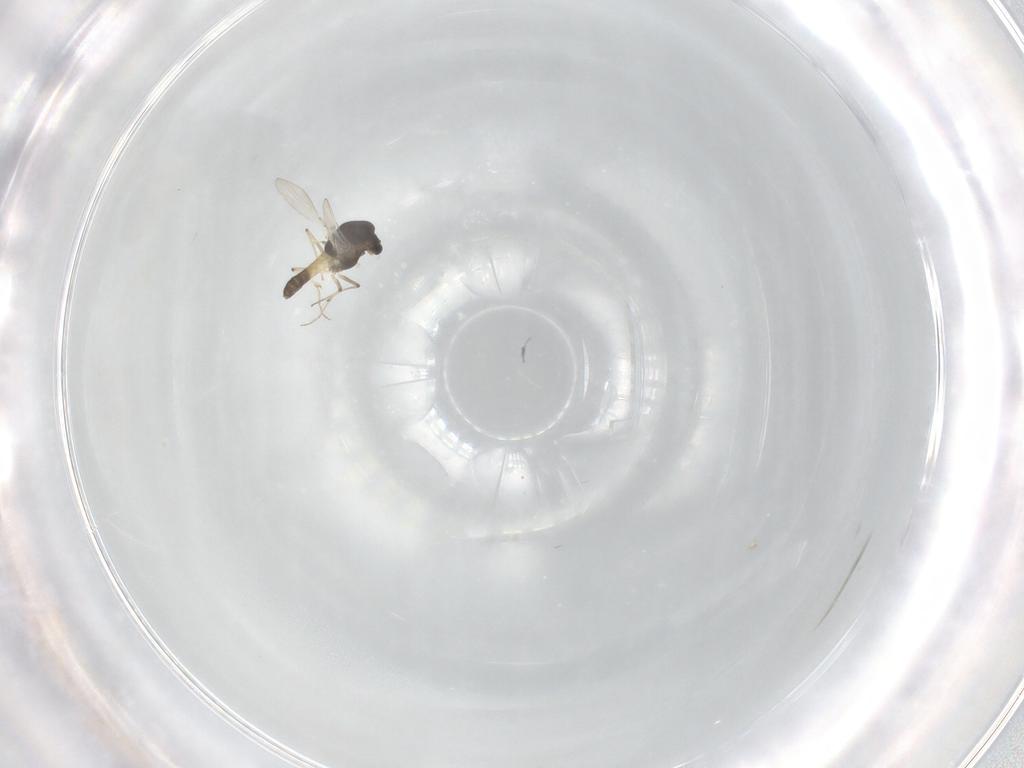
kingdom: Animalia
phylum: Arthropoda
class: Insecta
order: Diptera
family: Chironomidae
